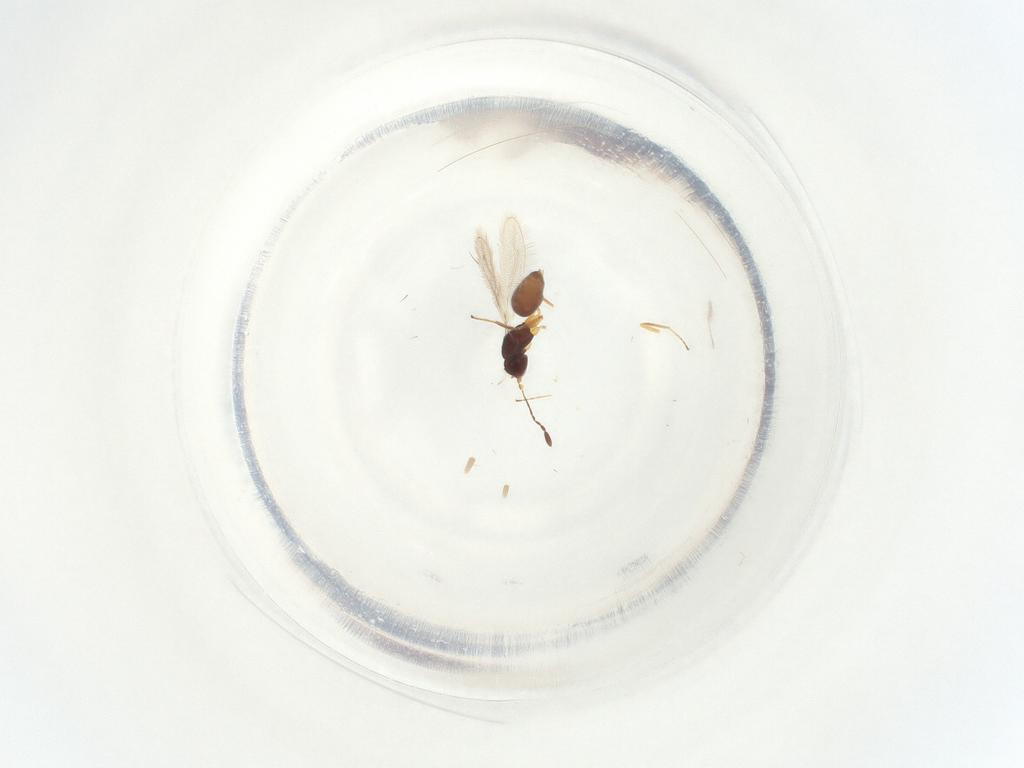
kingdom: Animalia
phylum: Arthropoda
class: Insecta
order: Hymenoptera
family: Mymaridae
